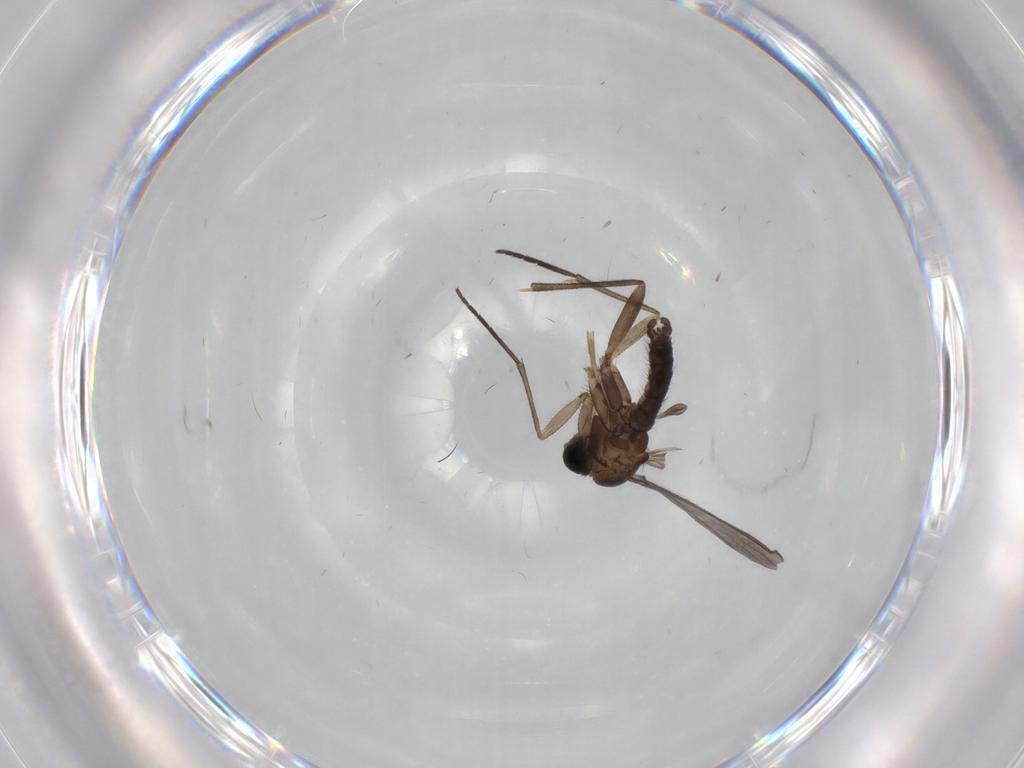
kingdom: Animalia
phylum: Arthropoda
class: Insecta
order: Diptera
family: Sciaridae
